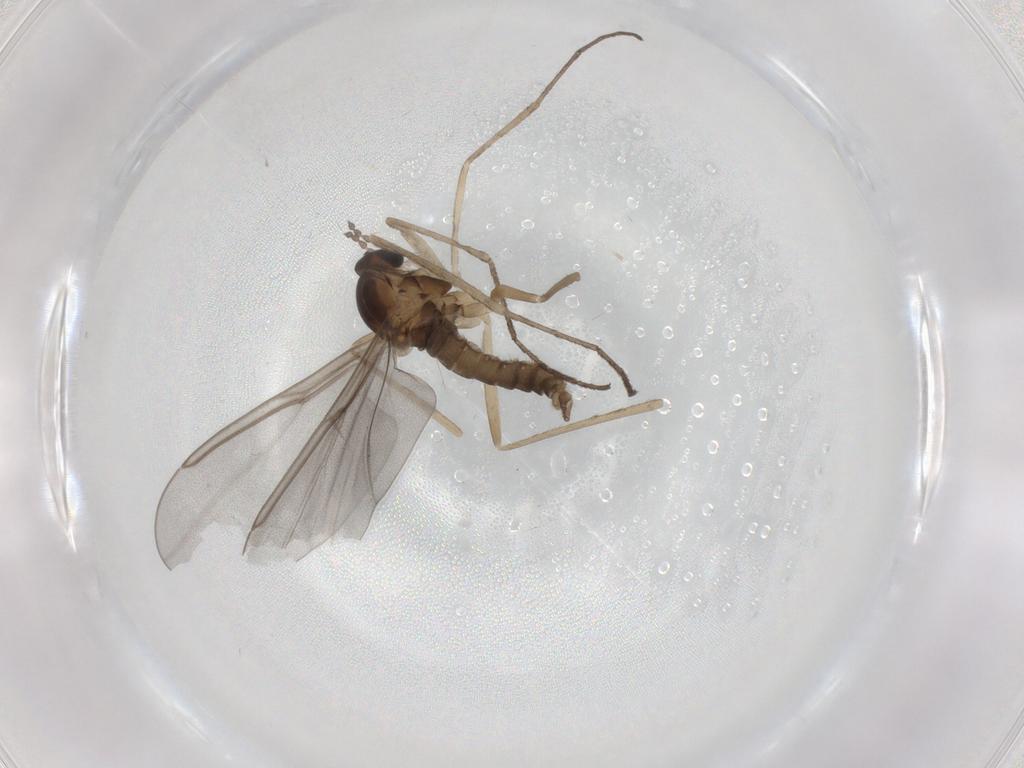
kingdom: Animalia
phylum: Arthropoda
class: Insecta
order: Diptera
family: Cecidomyiidae
